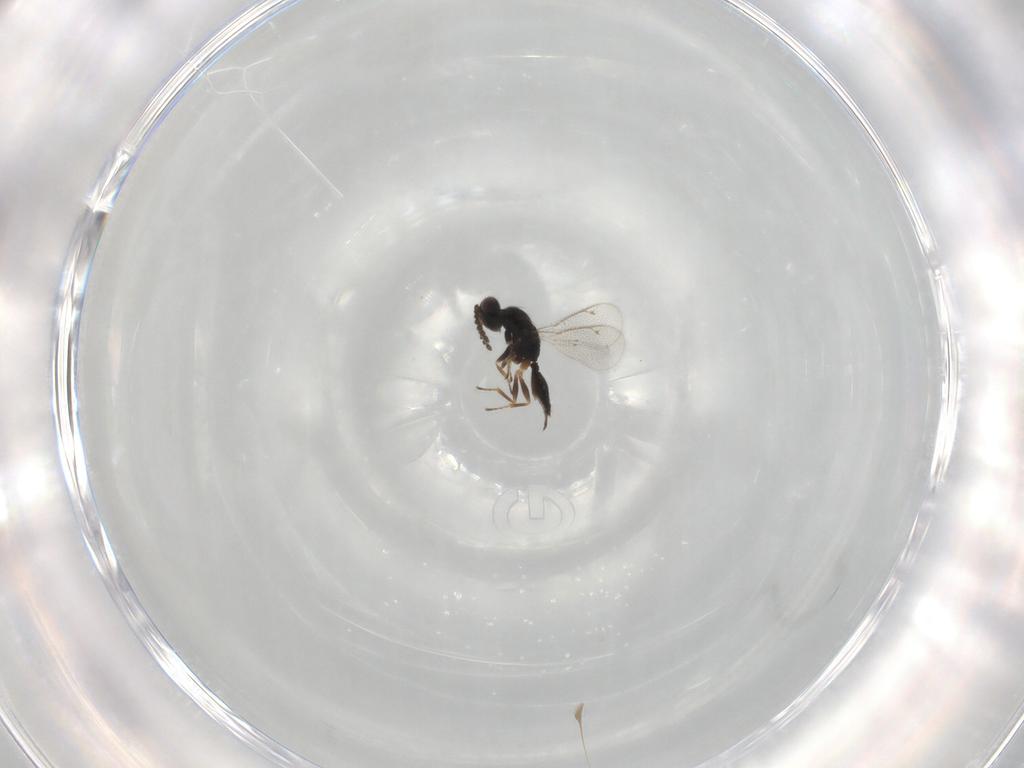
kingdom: Animalia
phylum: Arthropoda
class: Insecta
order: Hymenoptera
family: Eulophidae
